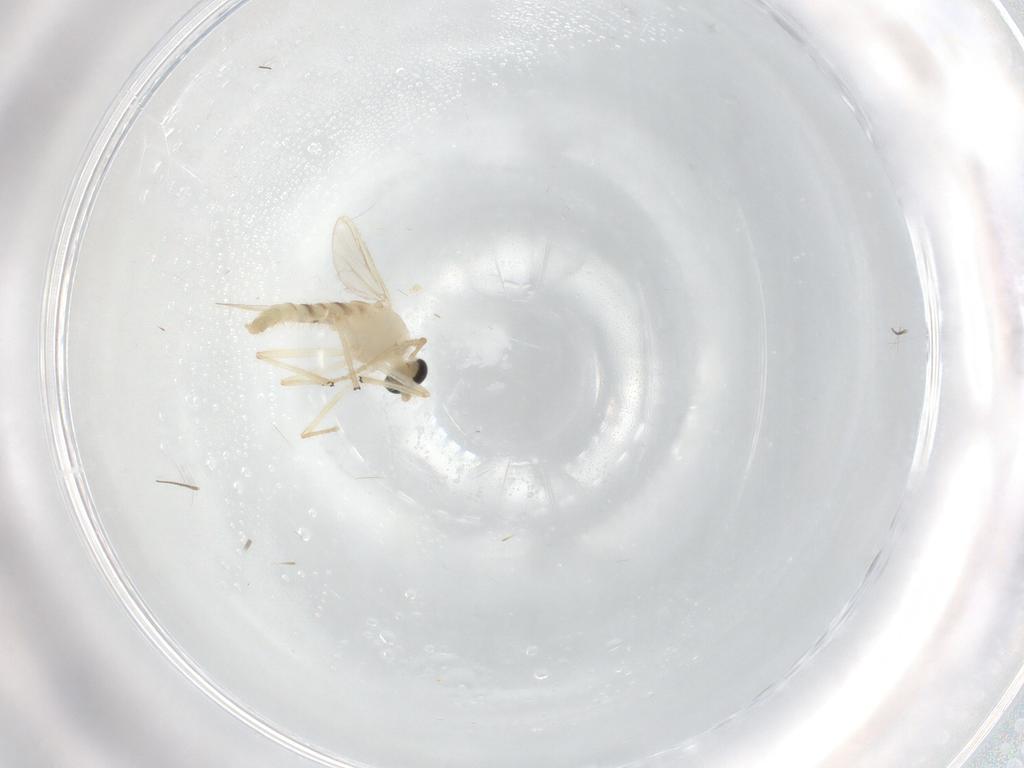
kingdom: Animalia
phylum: Arthropoda
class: Insecta
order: Diptera
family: Chironomidae
